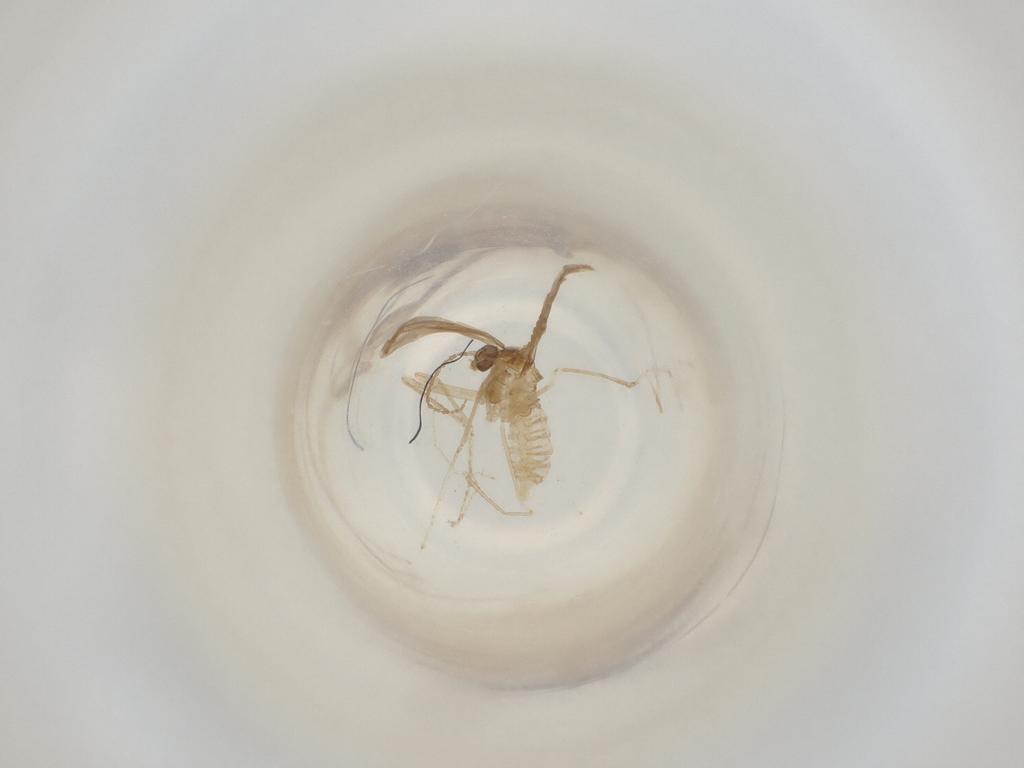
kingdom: Animalia
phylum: Arthropoda
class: Insecta
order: Diptera
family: Cecidomyiidae
